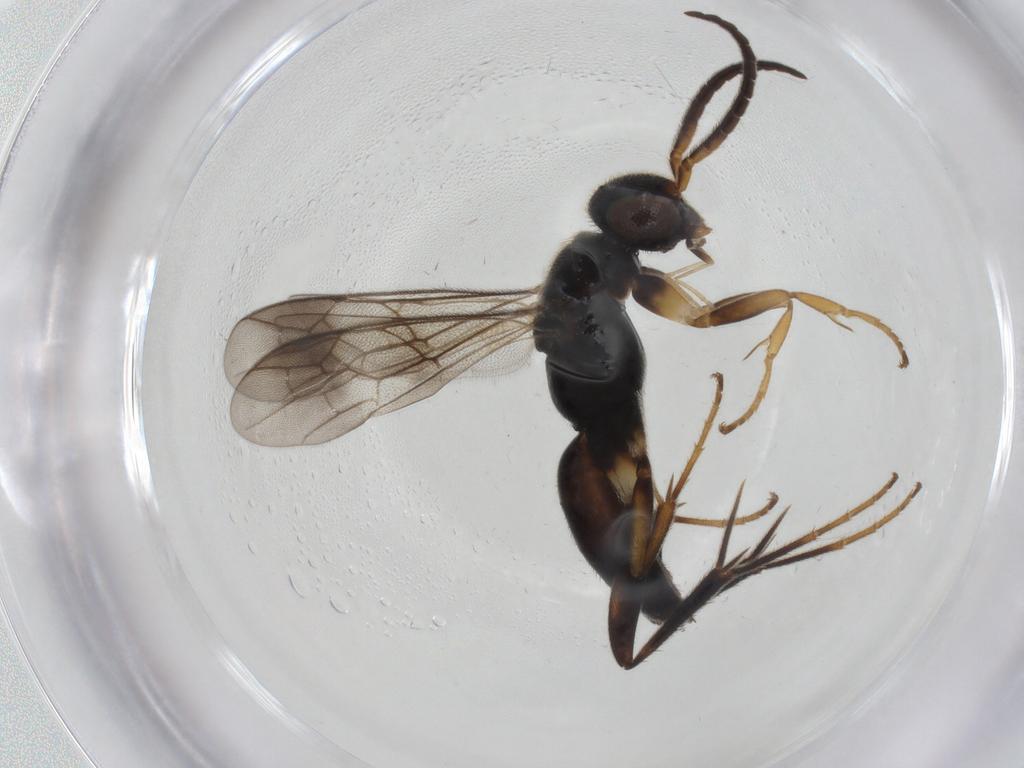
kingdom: Animalia
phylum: Arthropoda
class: Insecta
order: Hymenoptera
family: Pompilidae
